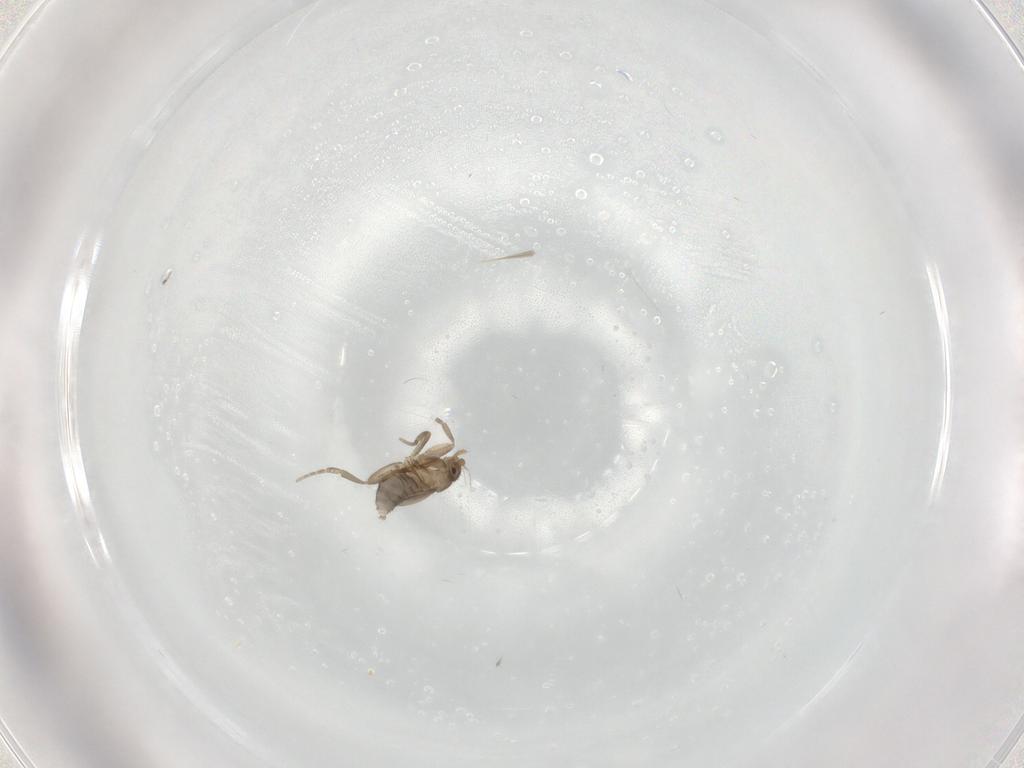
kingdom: Animalia
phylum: Arthropoda
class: Insecta
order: Diptera
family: Phoridae
